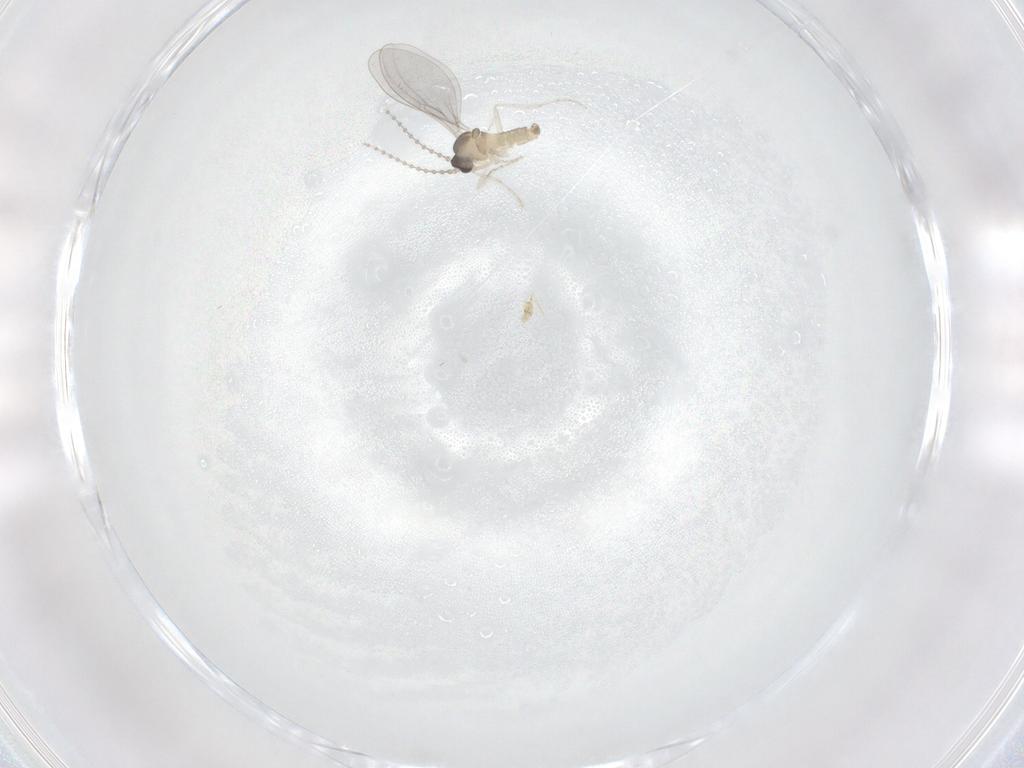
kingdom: Animalia
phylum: Arthropoda
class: Insecta
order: Diptera
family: Cecidomyiidae
